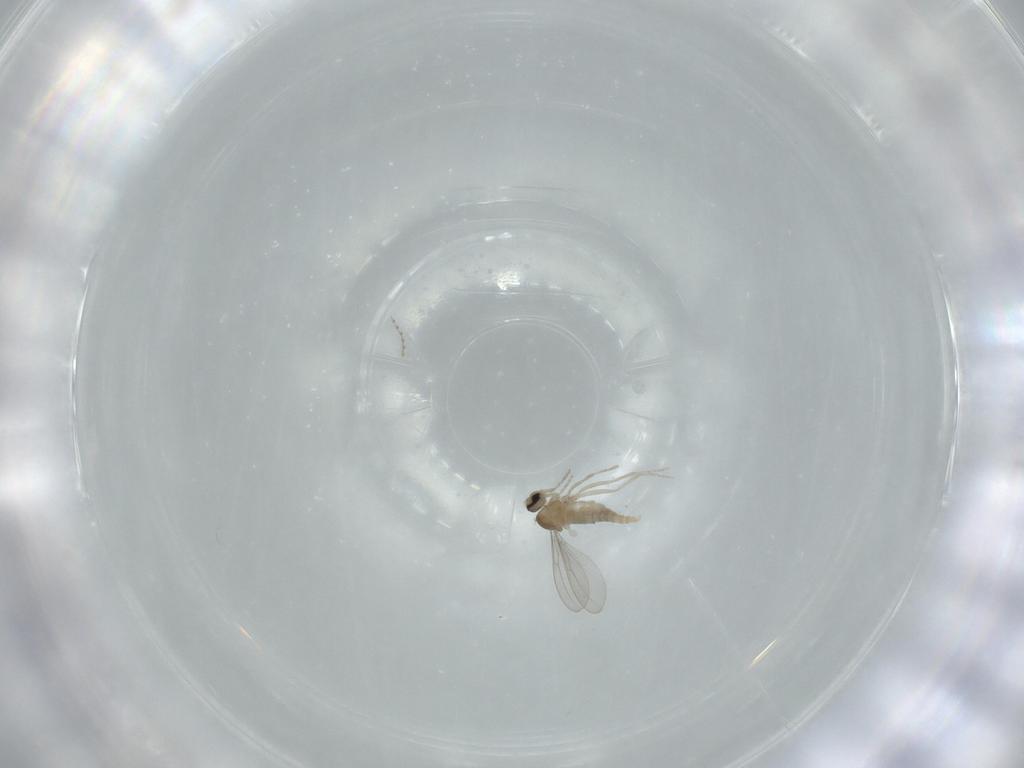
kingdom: Animalia
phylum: Arthropoda
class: Insecta
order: Diptera
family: Cecidomyiidae
